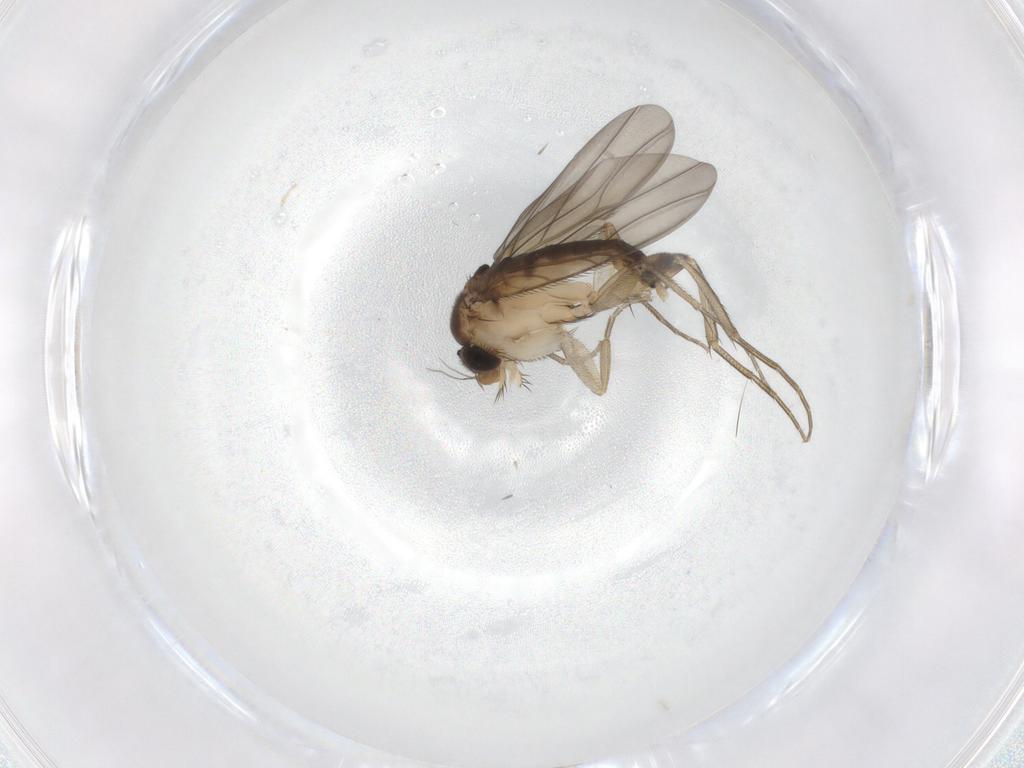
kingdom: Animalia
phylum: Arthropoda
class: Insecta
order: Diptera
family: Phoridae
